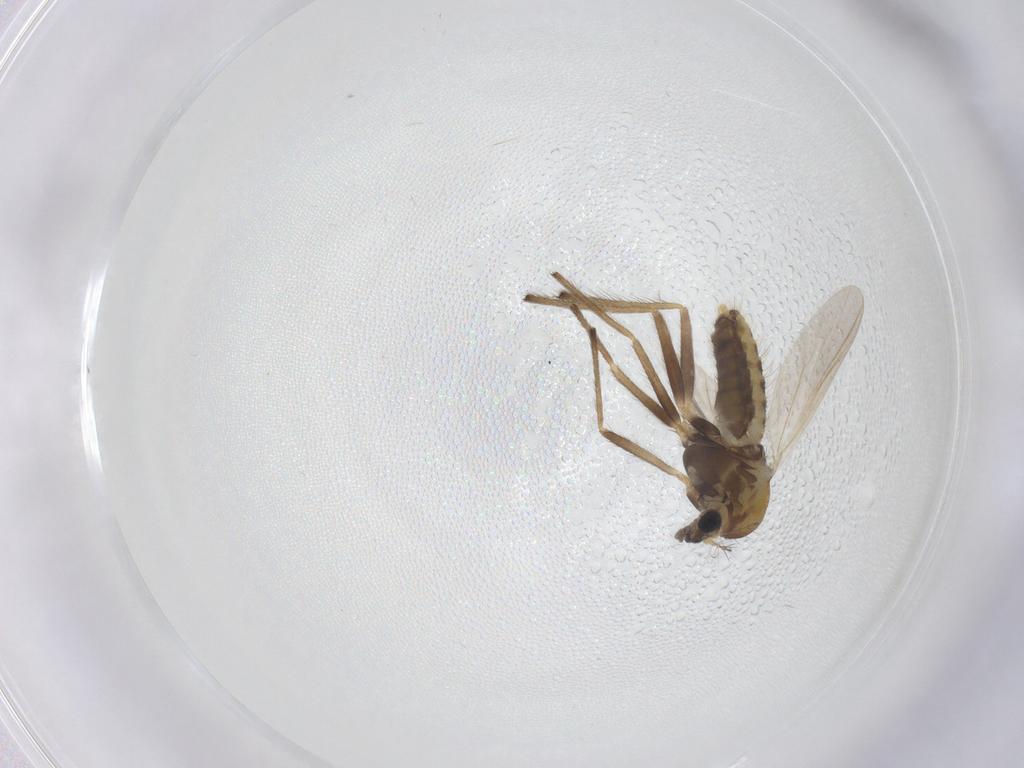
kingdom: Animalia
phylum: Arthropoda
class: Insecta
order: Diptera
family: Chironomidae
